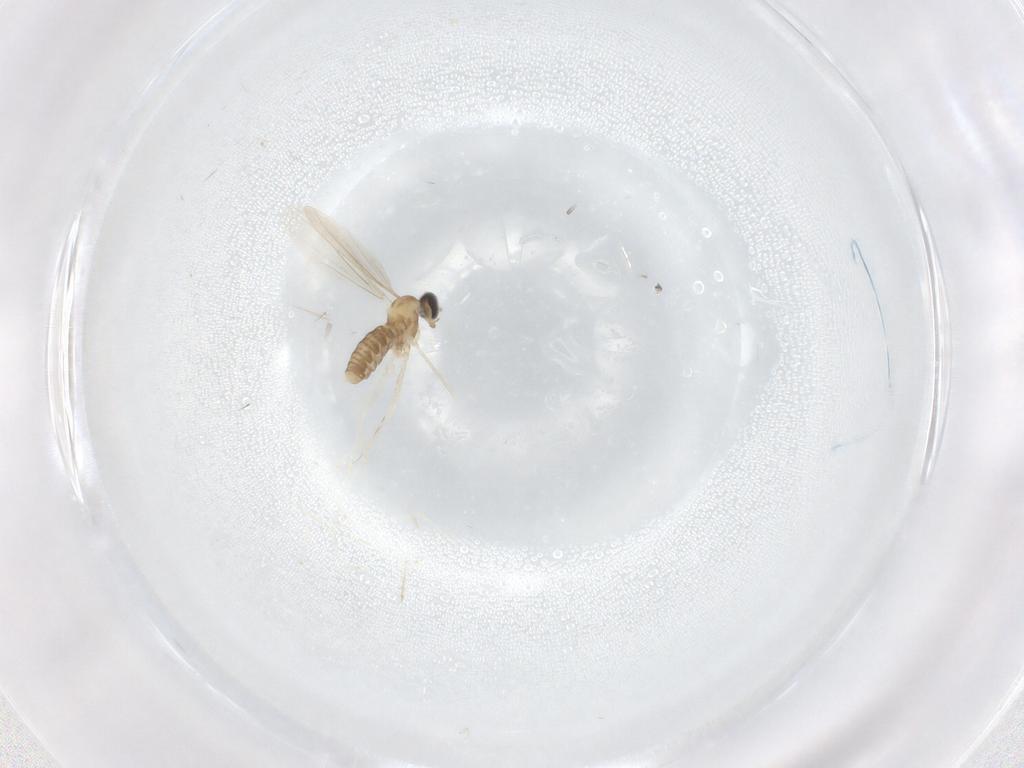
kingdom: Animalia
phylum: Arthropoda
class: Insecta
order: Diptera
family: Cecidomyiidae
